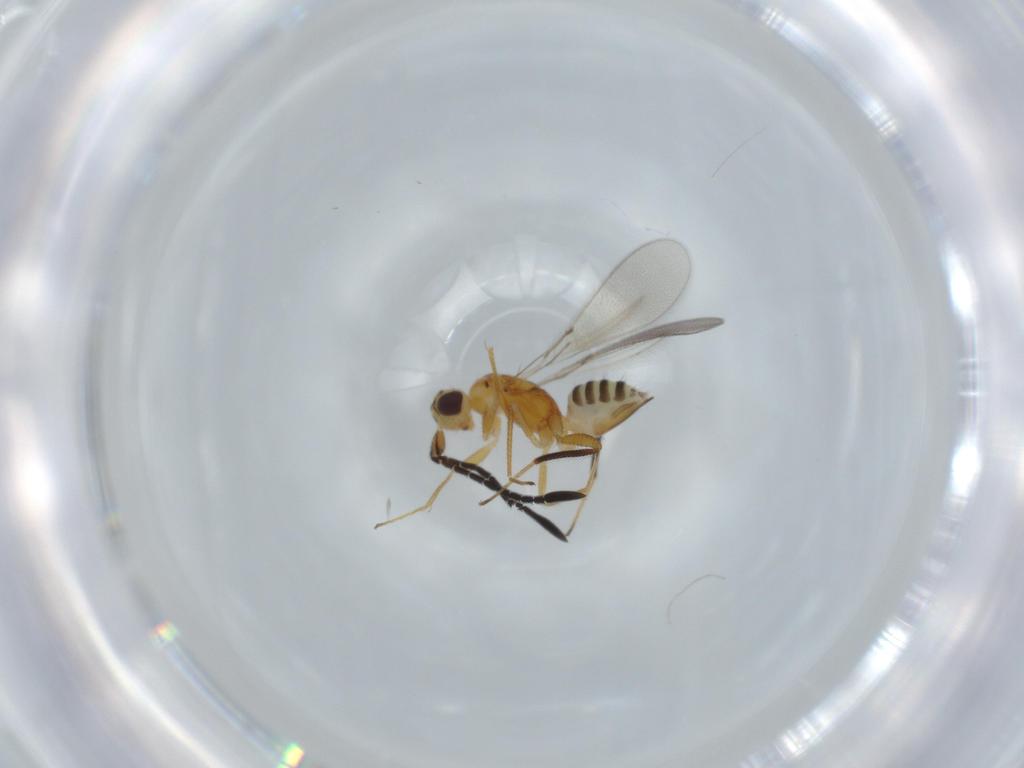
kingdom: Animalia
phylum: Arthropoda
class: Insecta
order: Hymenoptera
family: Mymaridae
